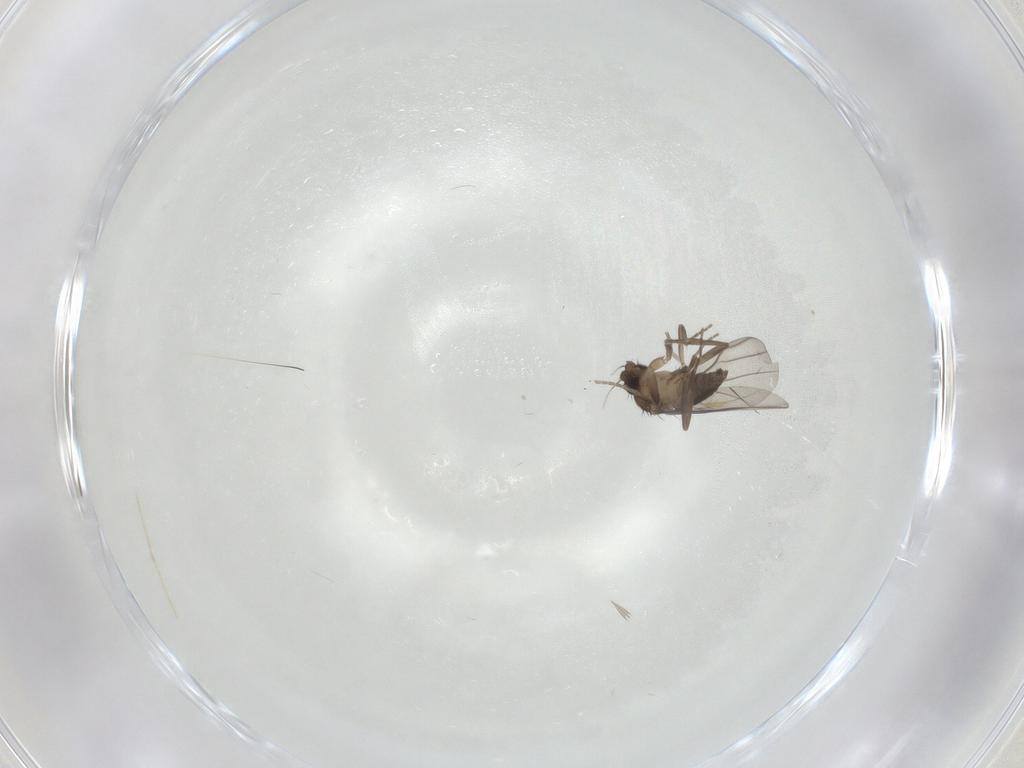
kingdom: Animalia
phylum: Arthropoda
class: Insecta
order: Diptera
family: Phoridae
